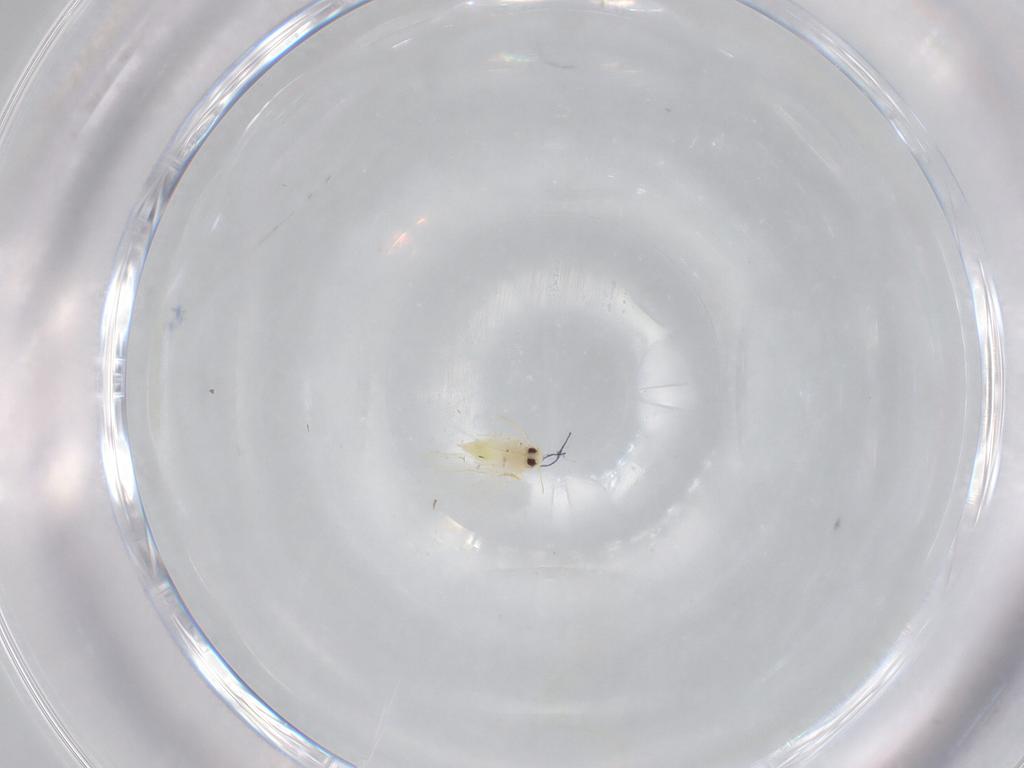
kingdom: Animalia
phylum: Arthropoda
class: Insecta
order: Hemiptera
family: Aleyrodidae
